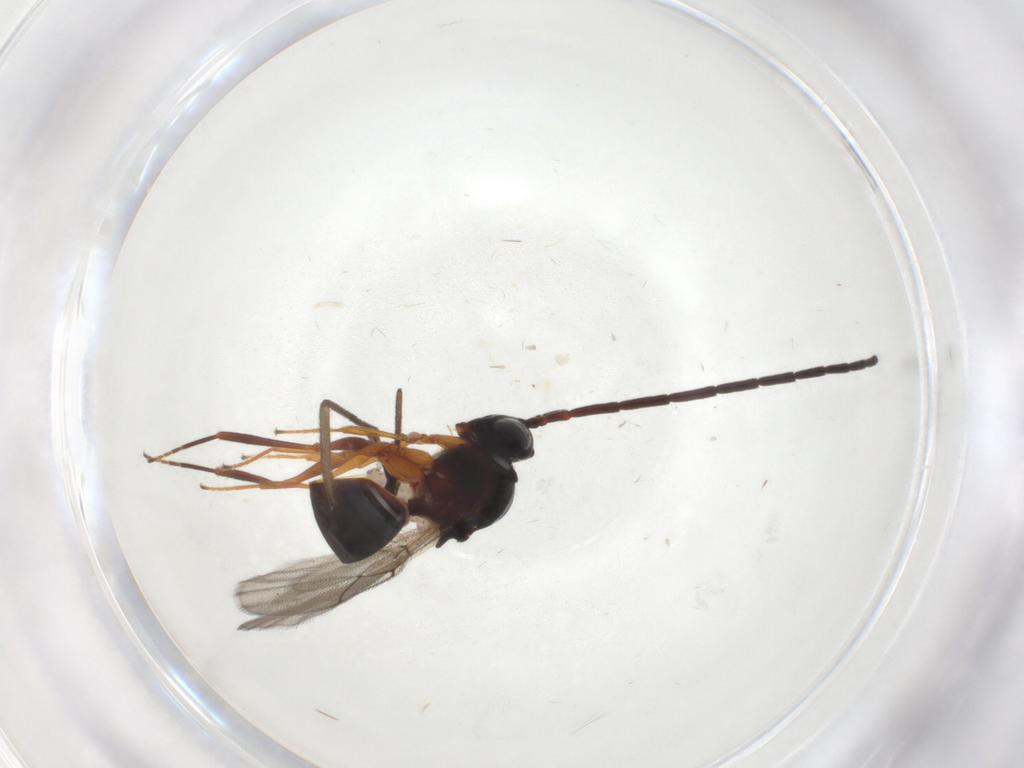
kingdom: Animalia
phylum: Arthropoda
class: Insecta
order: Hymenoptera
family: Figitidae
